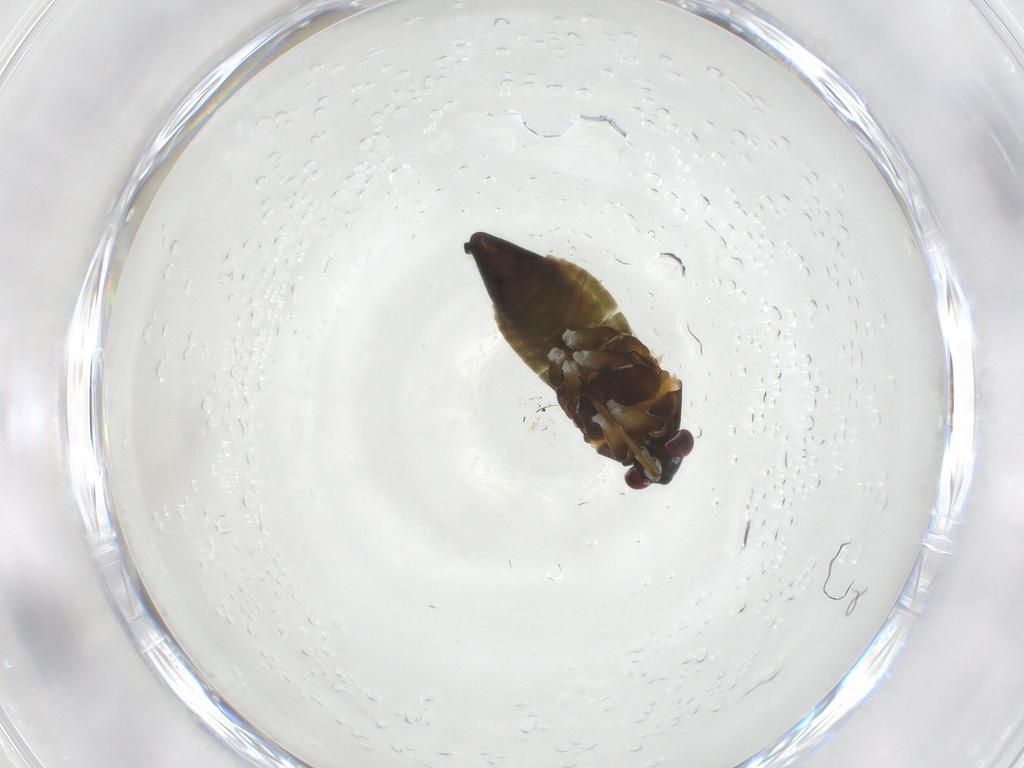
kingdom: Animalia
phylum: Arthropoda
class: Insecta
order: Hemiptera
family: Miridae
